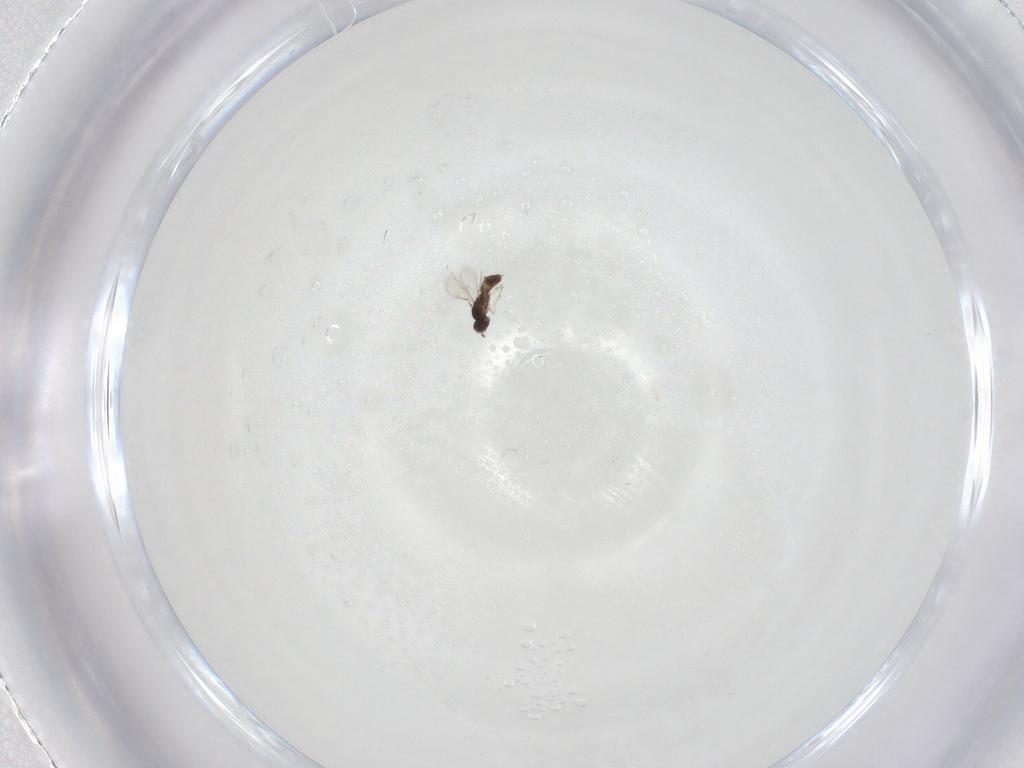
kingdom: Animalia
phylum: Arthropoda
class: Insecta
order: Hymenoptera
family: Eulophidae
